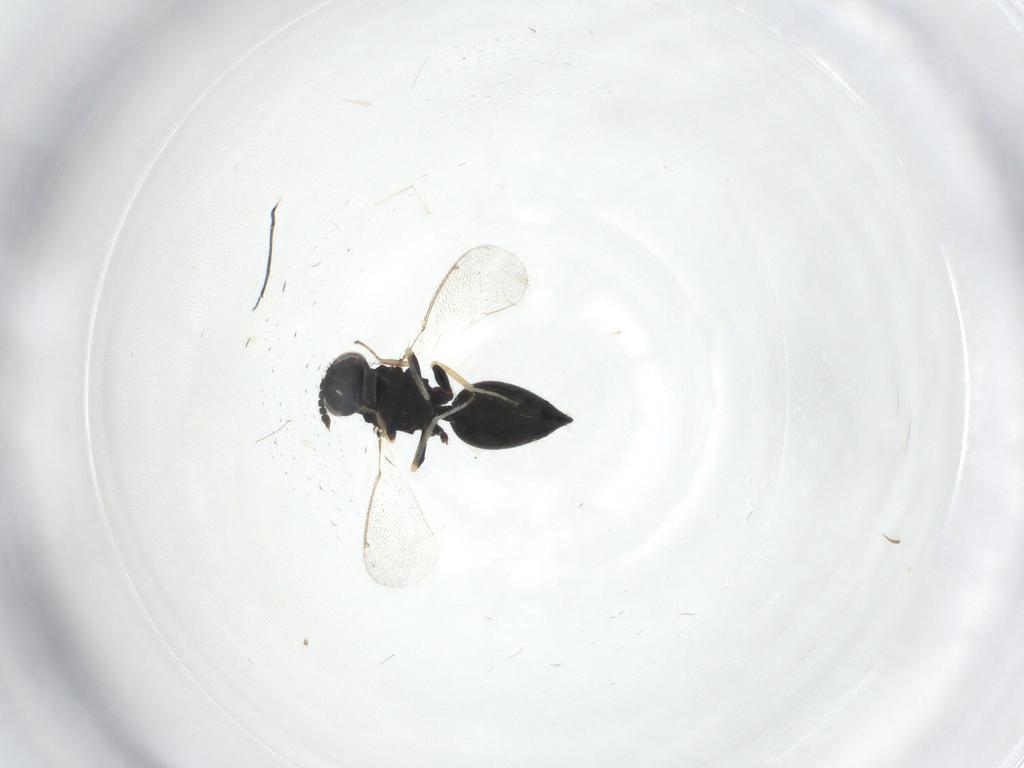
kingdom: Animalia
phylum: Arthropoda
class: Insecta
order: Hymenoptera
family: Eulophidae
